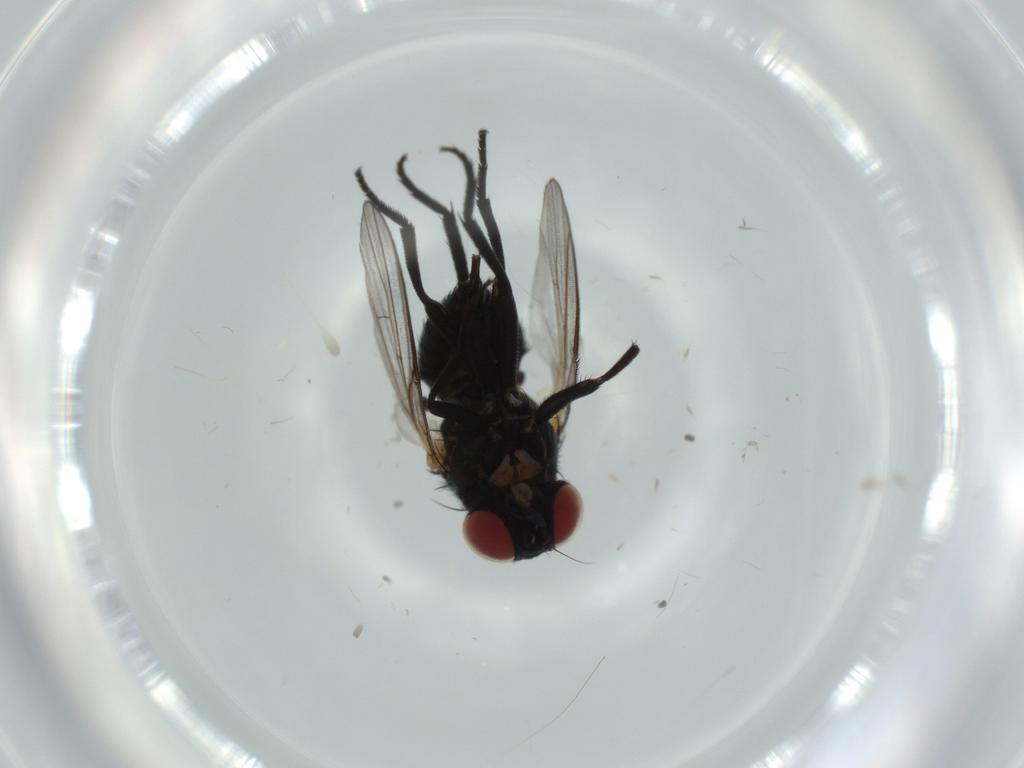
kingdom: Animalia
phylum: Arthropoda
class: Insecta
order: Diptera
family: Agromyzidae
